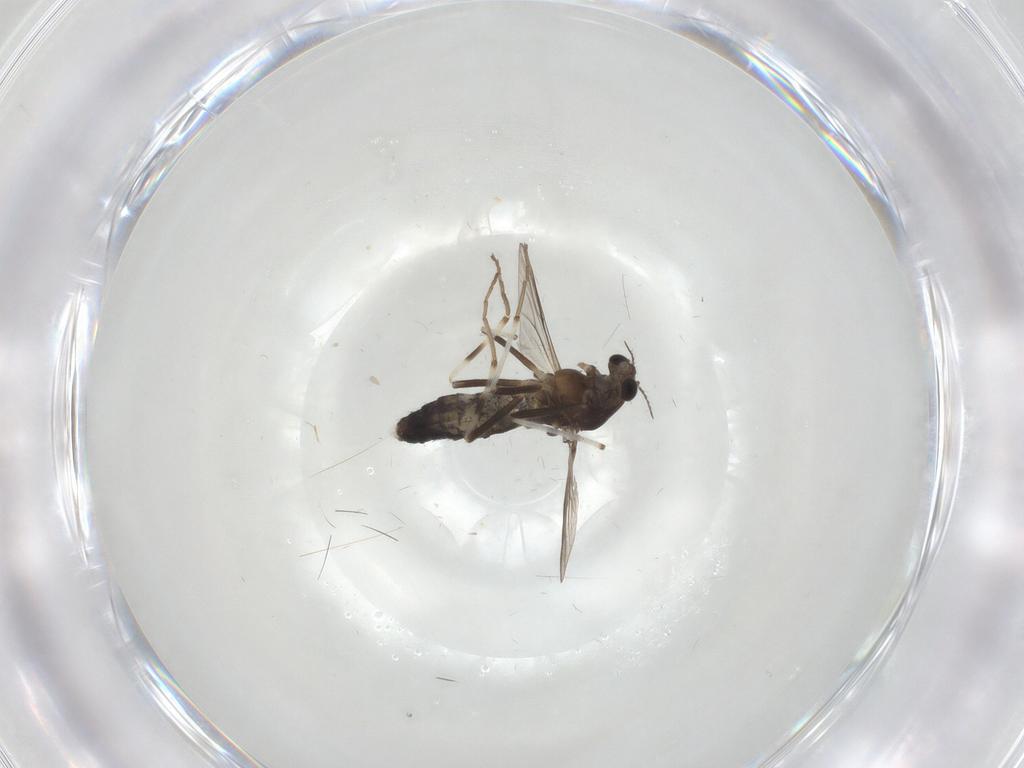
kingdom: Animalia
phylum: Arthropoda
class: Insecta
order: Diptera
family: Chironomidae
